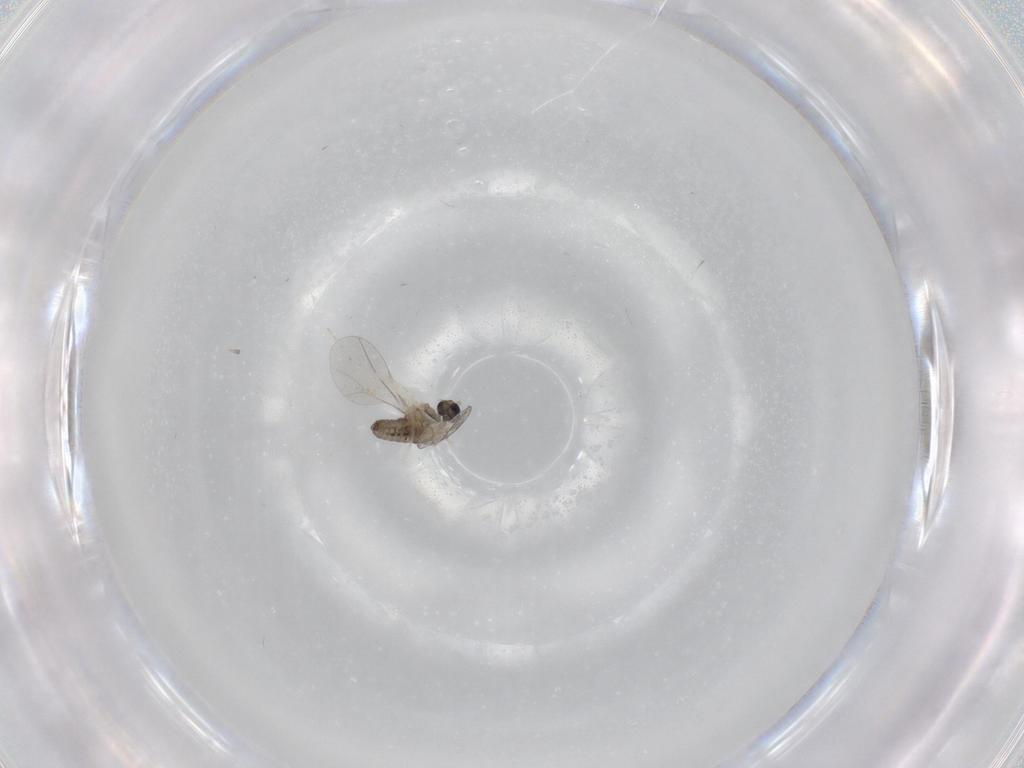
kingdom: Animalia
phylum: Arthropoda
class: Insecta
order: Diptera
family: Cecidomyiidae
